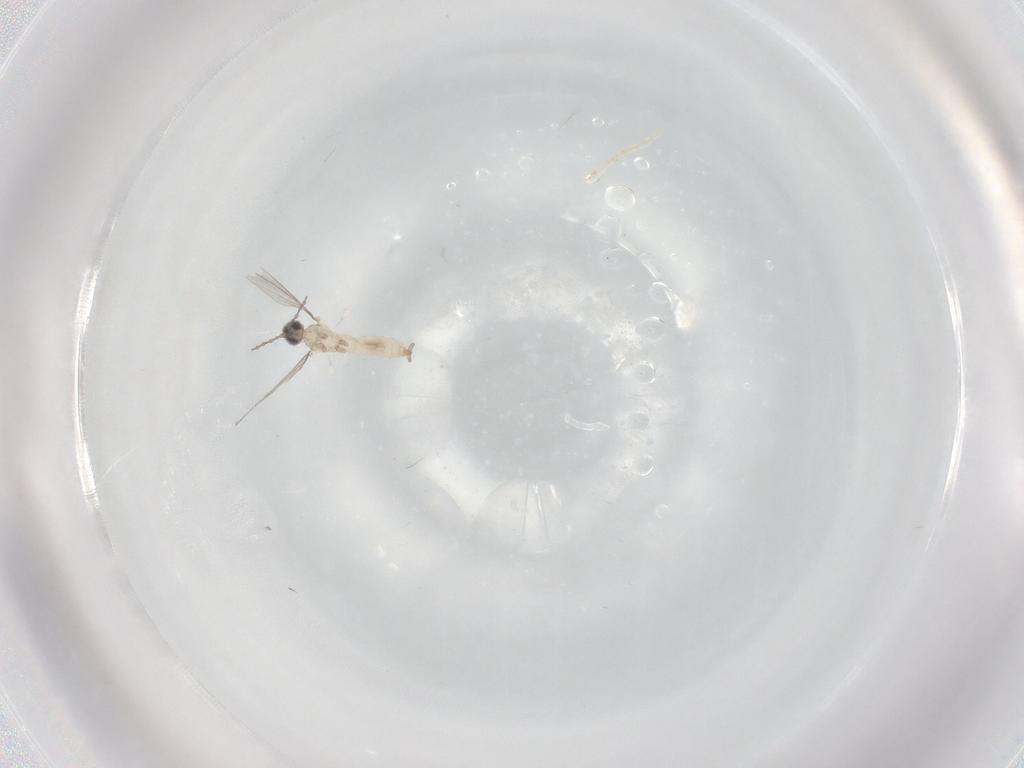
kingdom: Animalia
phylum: Arthropoda
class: Insecta
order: Diptera
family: Cecidomyiidae
